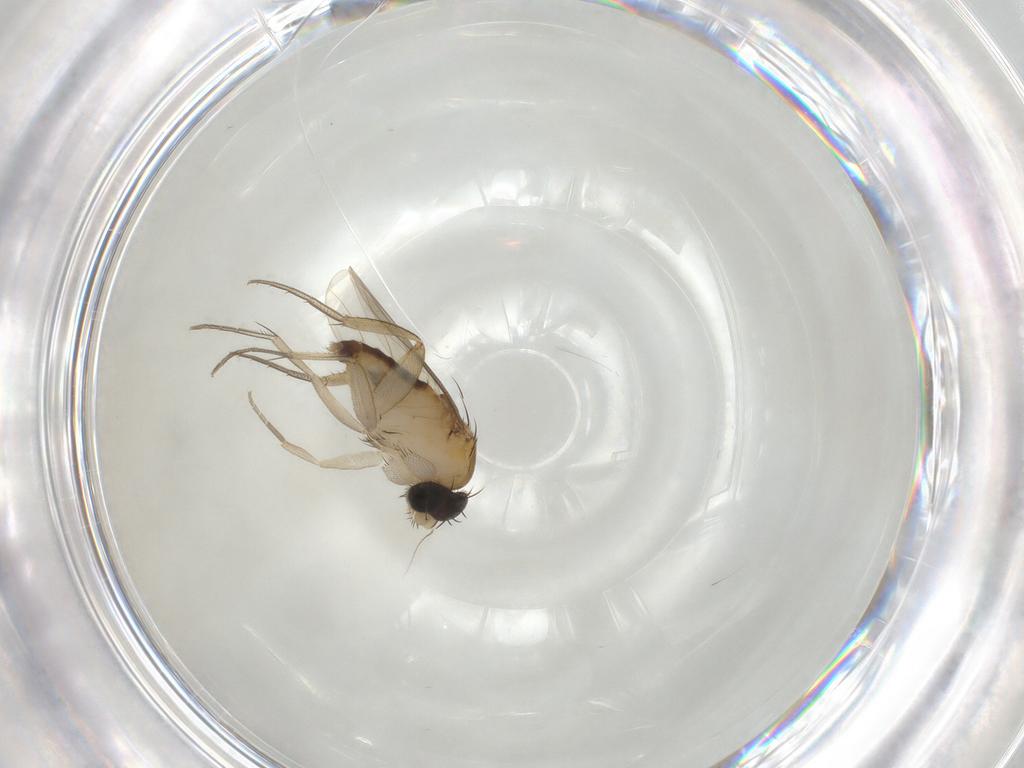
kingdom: Animalia
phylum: Arthropoda
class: Insecta
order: Diptera
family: Phoridae
